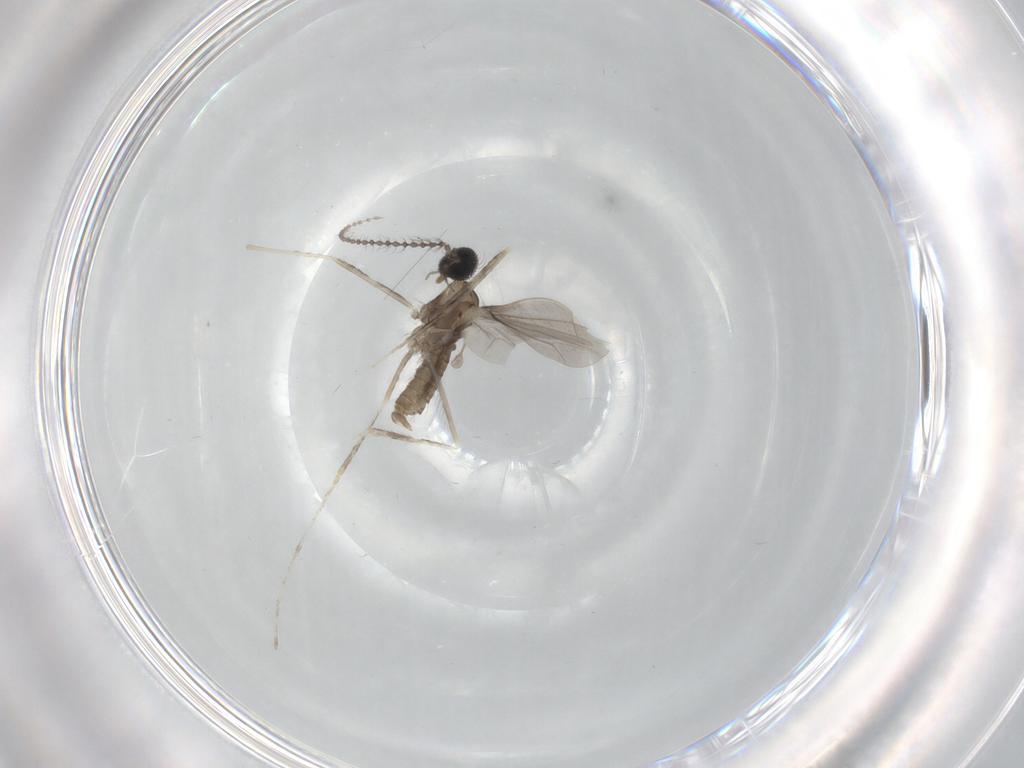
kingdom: Animalia
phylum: Arthropoda
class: Insecta
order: Diptera
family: Cecidomyiidae
